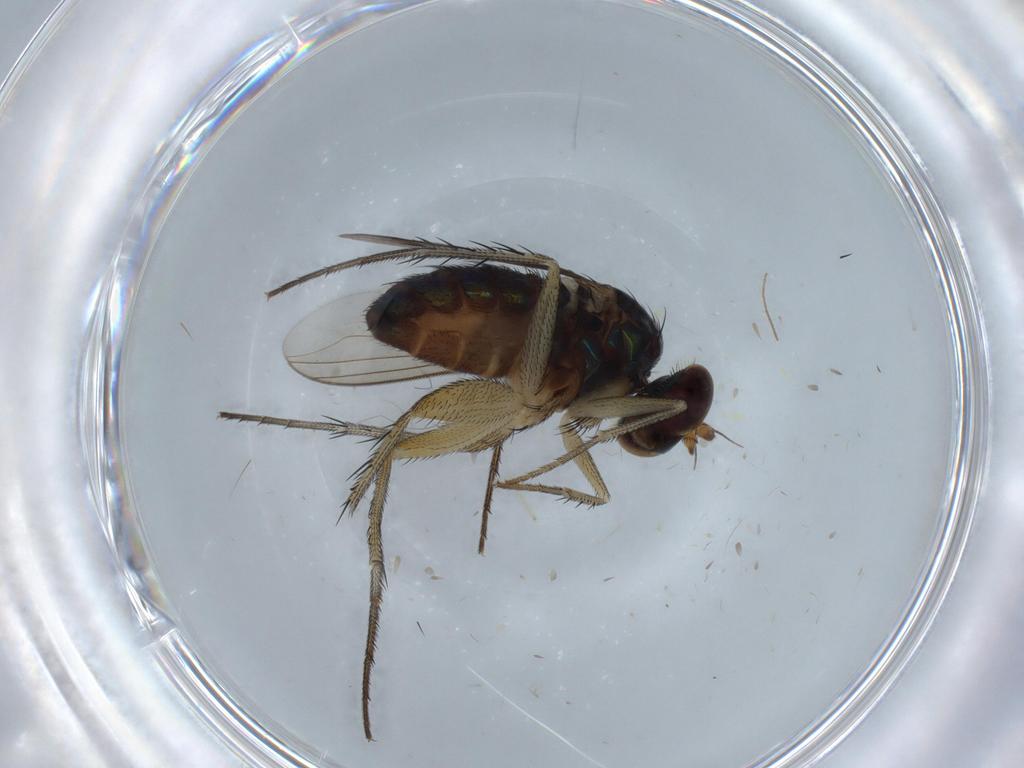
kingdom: Animalia
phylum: Arthropoda
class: Insecta
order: Diptera
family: Dolichopodidae
